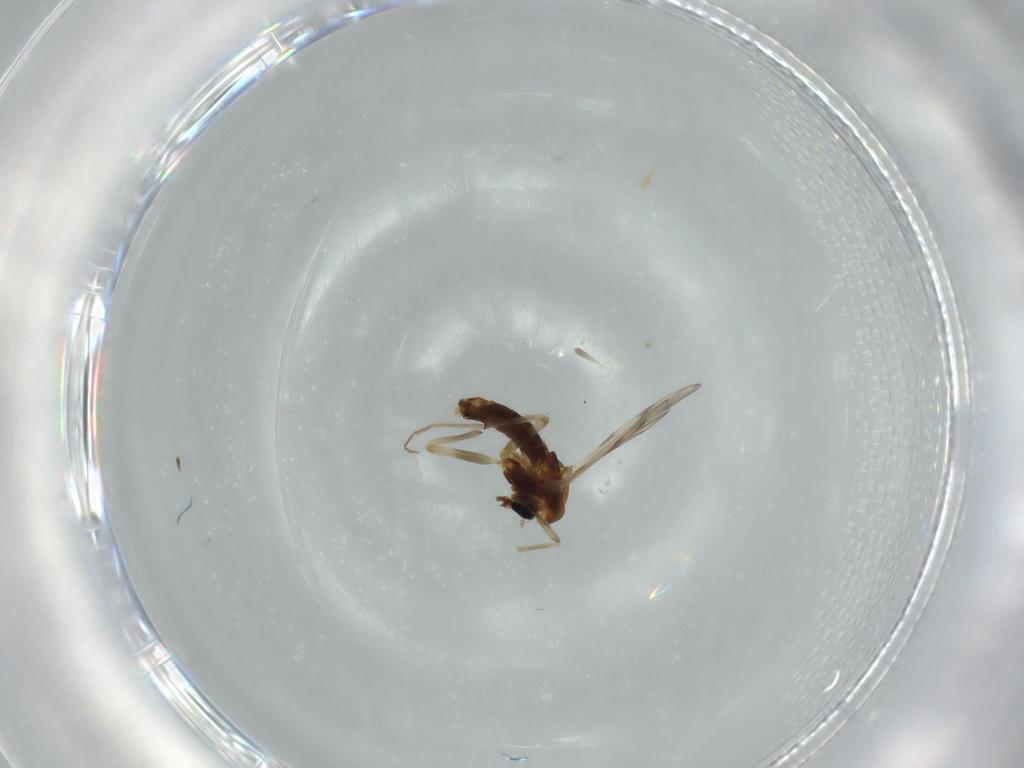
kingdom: Animalia
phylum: Arthropoda
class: Insecta
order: Diptera
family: Chironomidae
